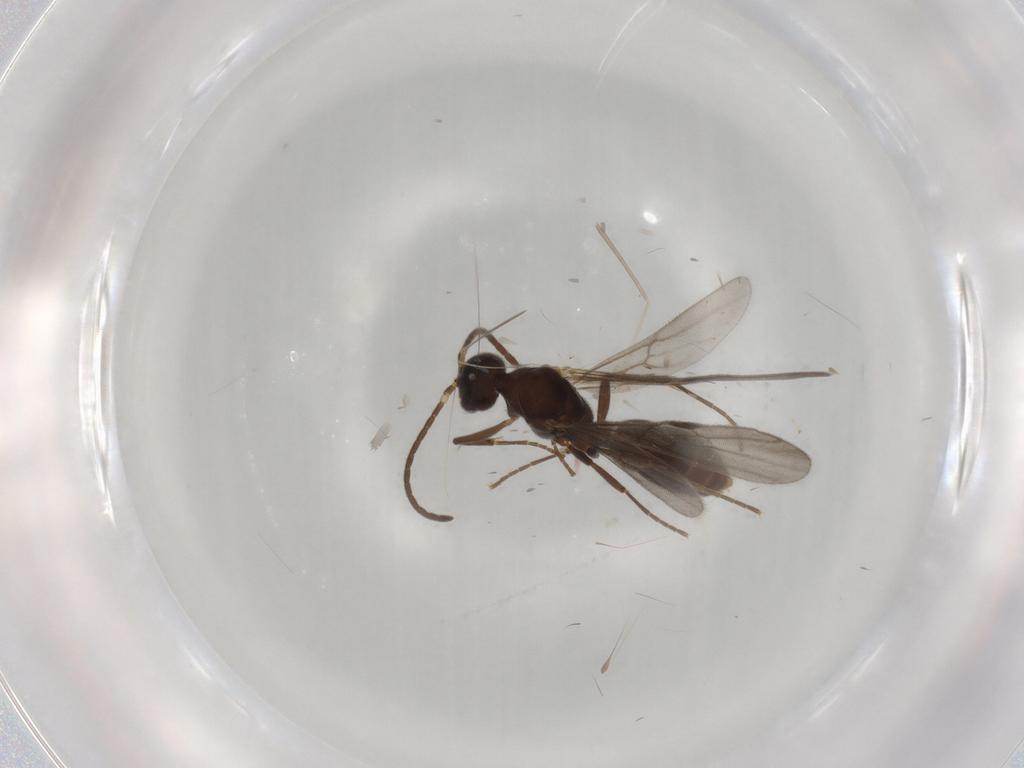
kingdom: Animalia
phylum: Arthropoda
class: Insecta
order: Hymenoptera
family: Formicidae
